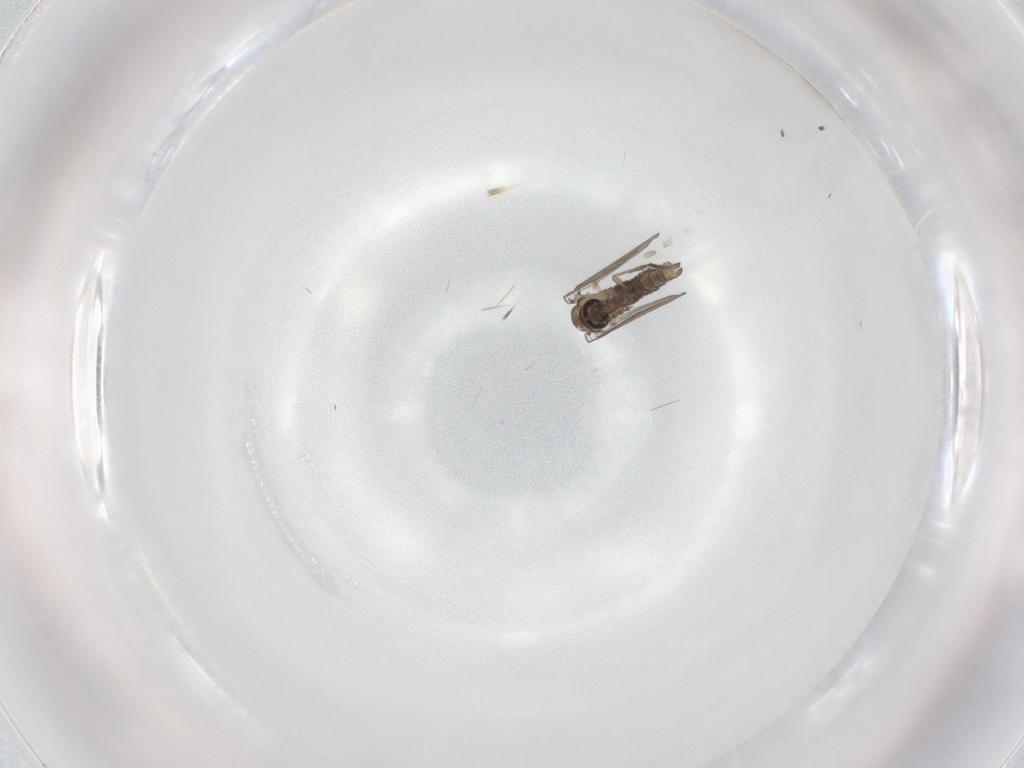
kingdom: Animalia
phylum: Arthropoda
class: Insecta
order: Diptera
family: Psychodidae
